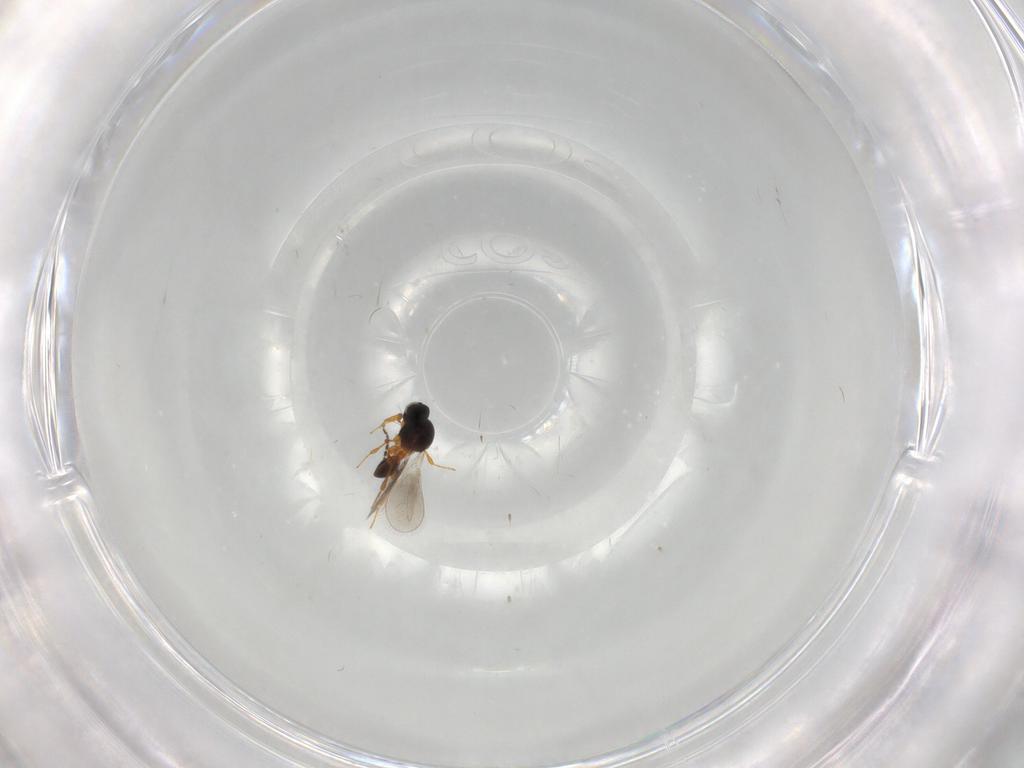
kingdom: Animalia
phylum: Arthropoda
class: Insecta
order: Hymenoptera
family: Platygastridae
